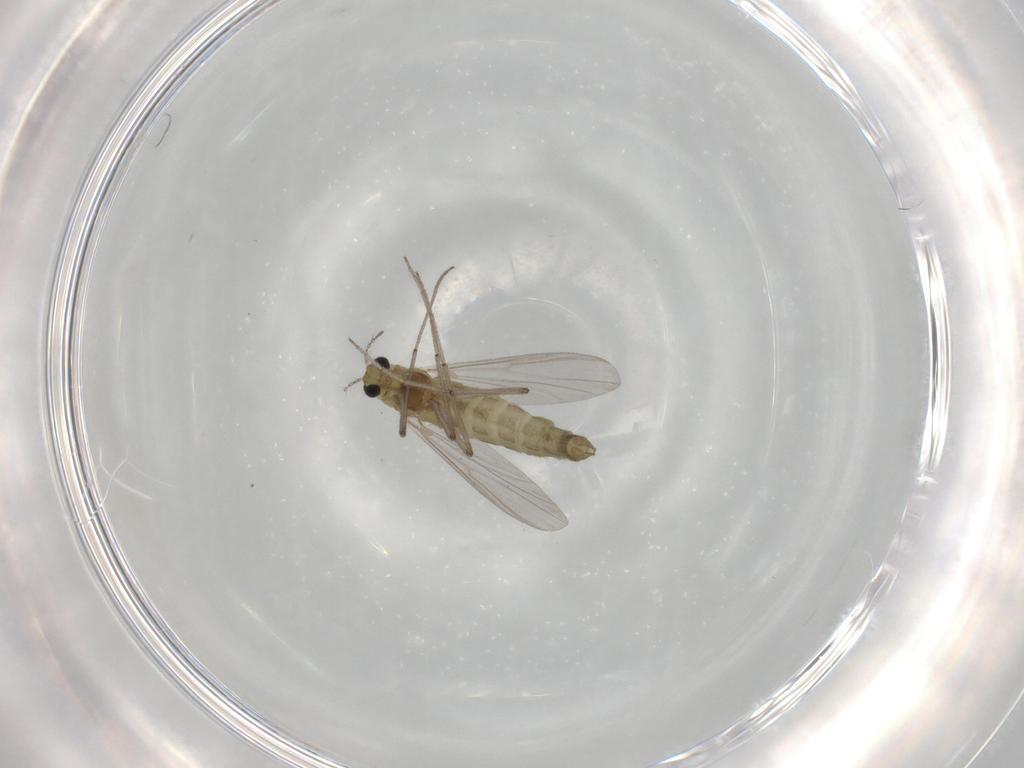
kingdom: Animalia
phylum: Arthropoda
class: Insecta
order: Diptera
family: Chironomidae
